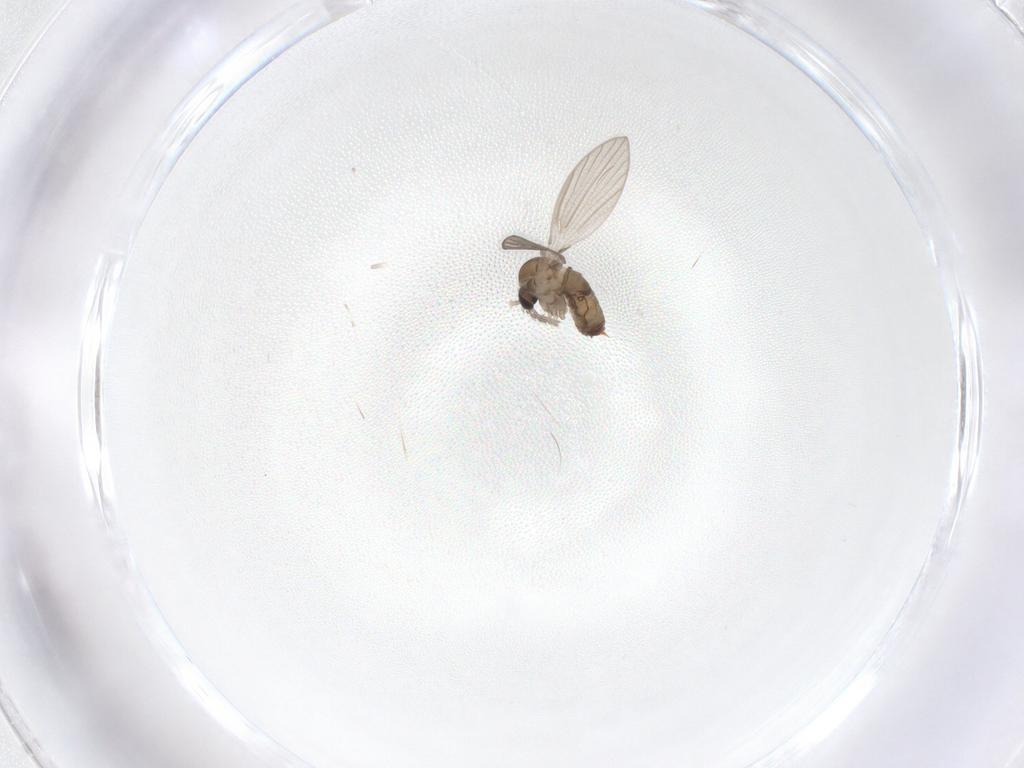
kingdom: Animalia
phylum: Arthropoda
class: Insecta
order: Diptera
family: Psychodidae
